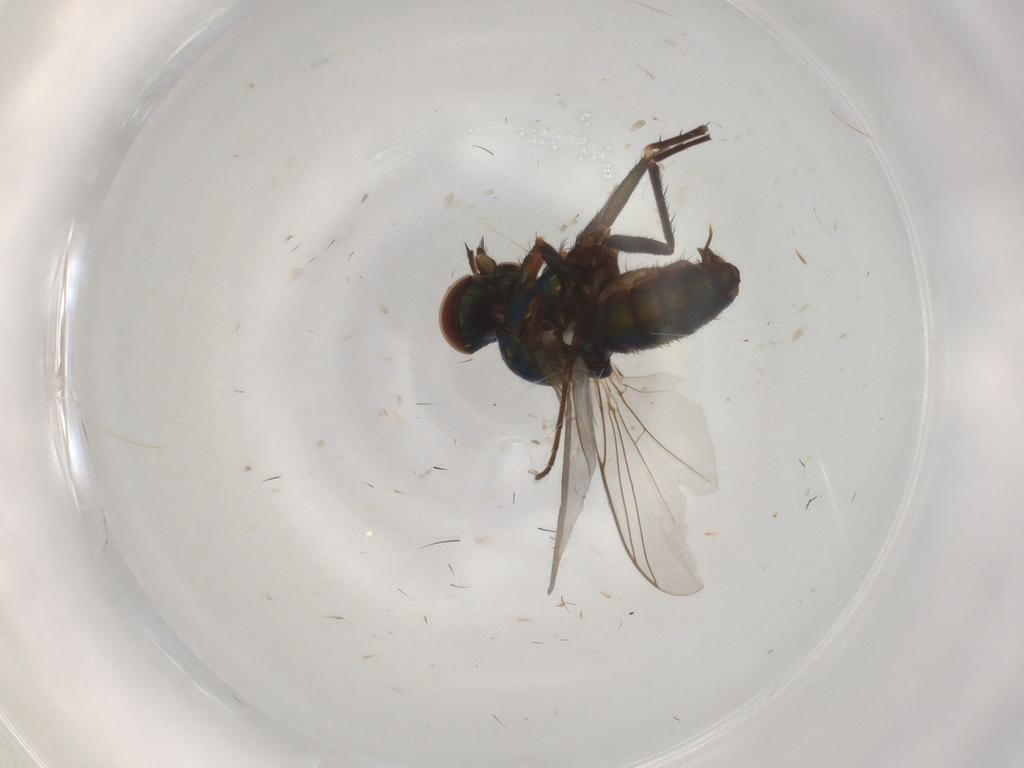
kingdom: Animalia
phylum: Arthropoda
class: Insecta
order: Diptera
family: Dolichopodidae
